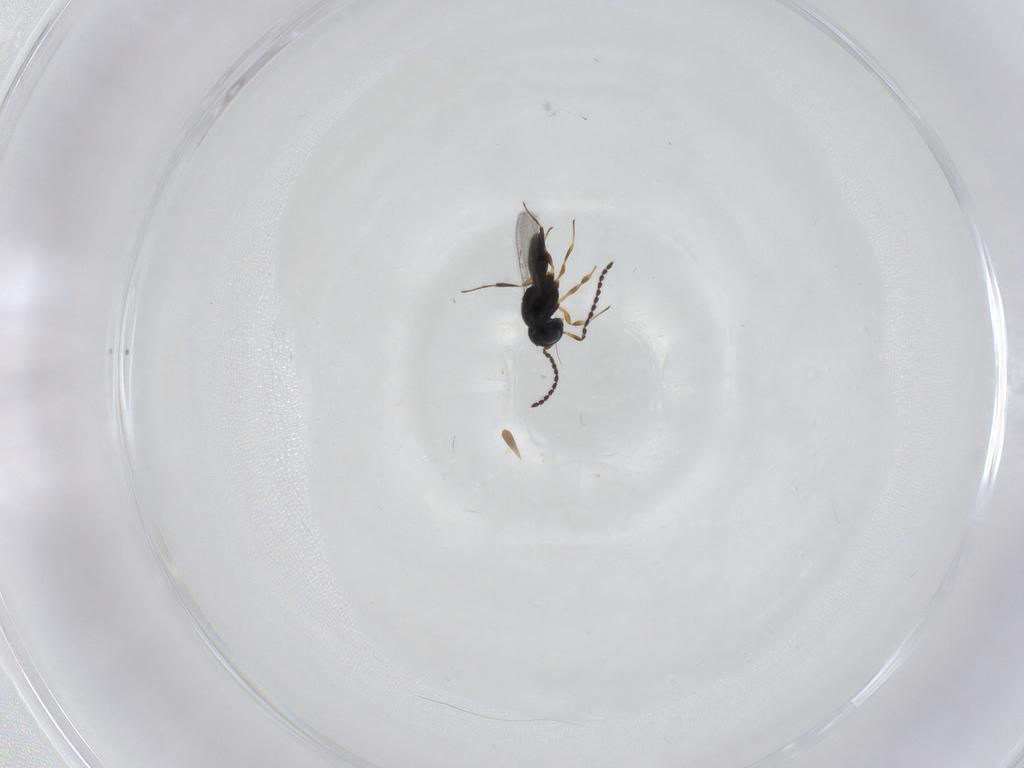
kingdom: Animalia
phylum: Arthropoda
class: Insecta
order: Hymenoptera
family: Scelionidae
